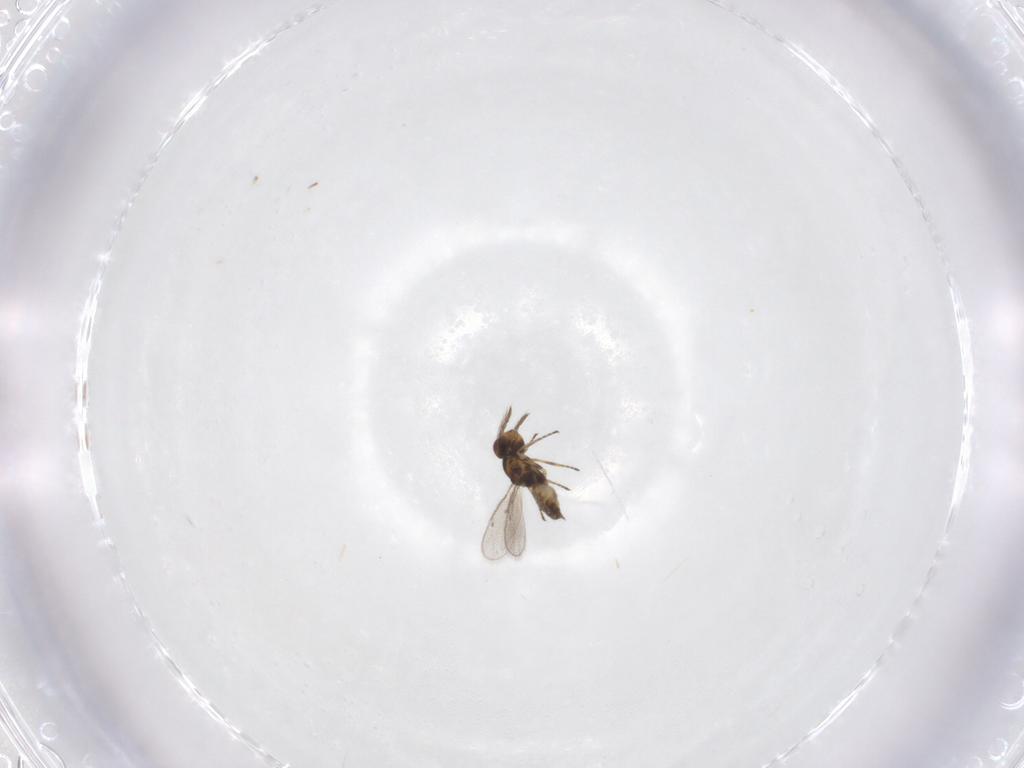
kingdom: Animalia
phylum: Arthropoda
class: Insecta
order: Hymenoptera
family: Eulophidae
